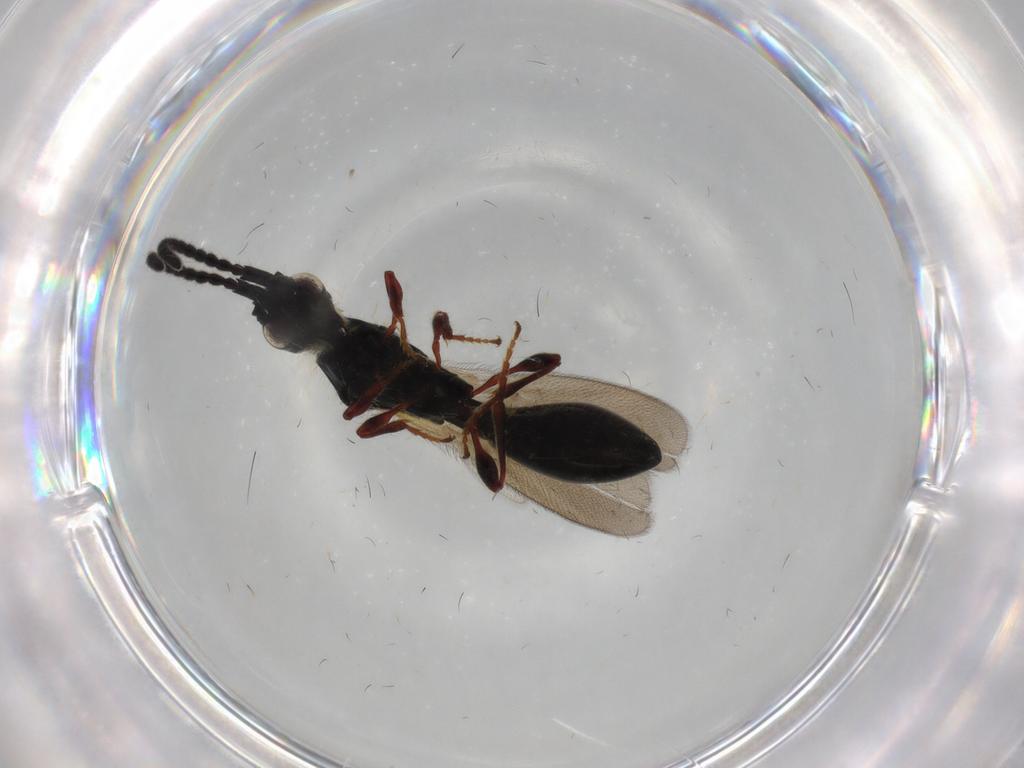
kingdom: Animalia
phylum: Arthropoda
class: Insecta
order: Hymenoptera
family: Diapriidae
